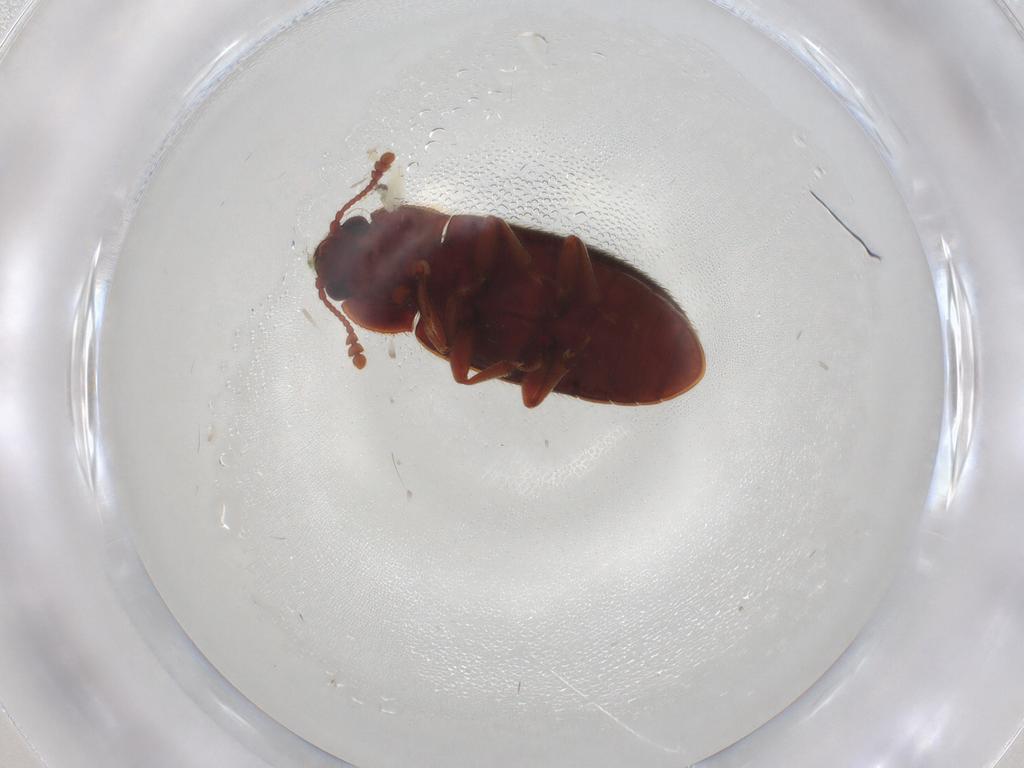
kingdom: Animalia
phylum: Arthropoda
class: Insecta
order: Coleoptera
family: Biphyllidae
